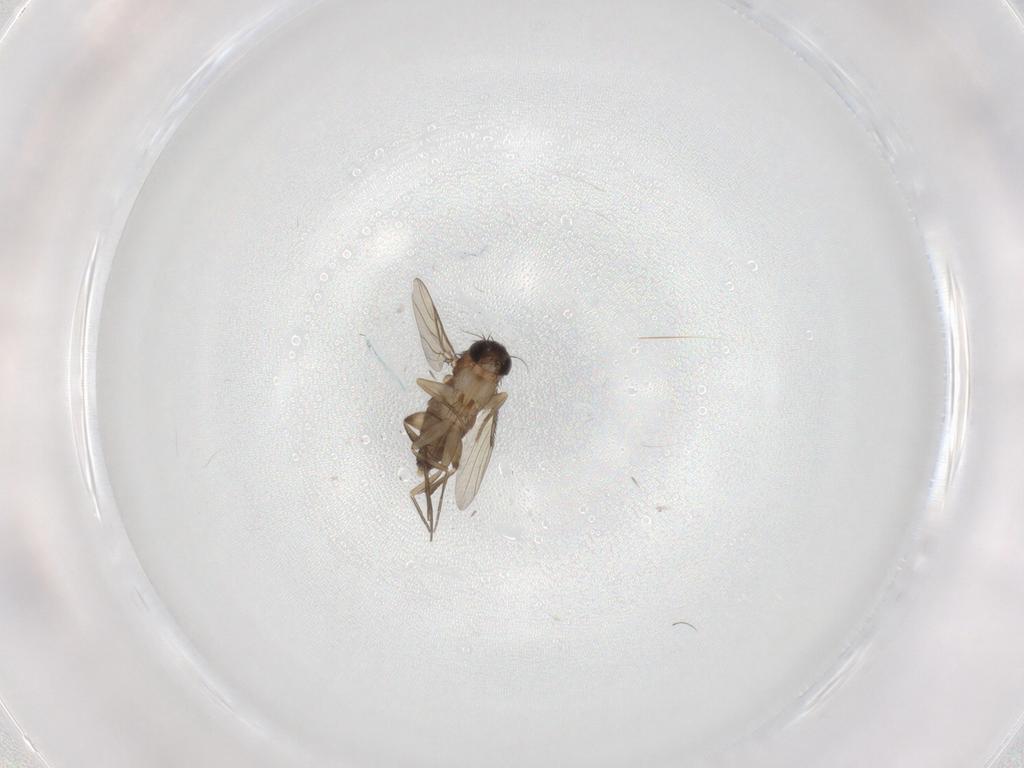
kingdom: Animalia
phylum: Arthropoda
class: Insecta
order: Diptera
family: Phoridae
